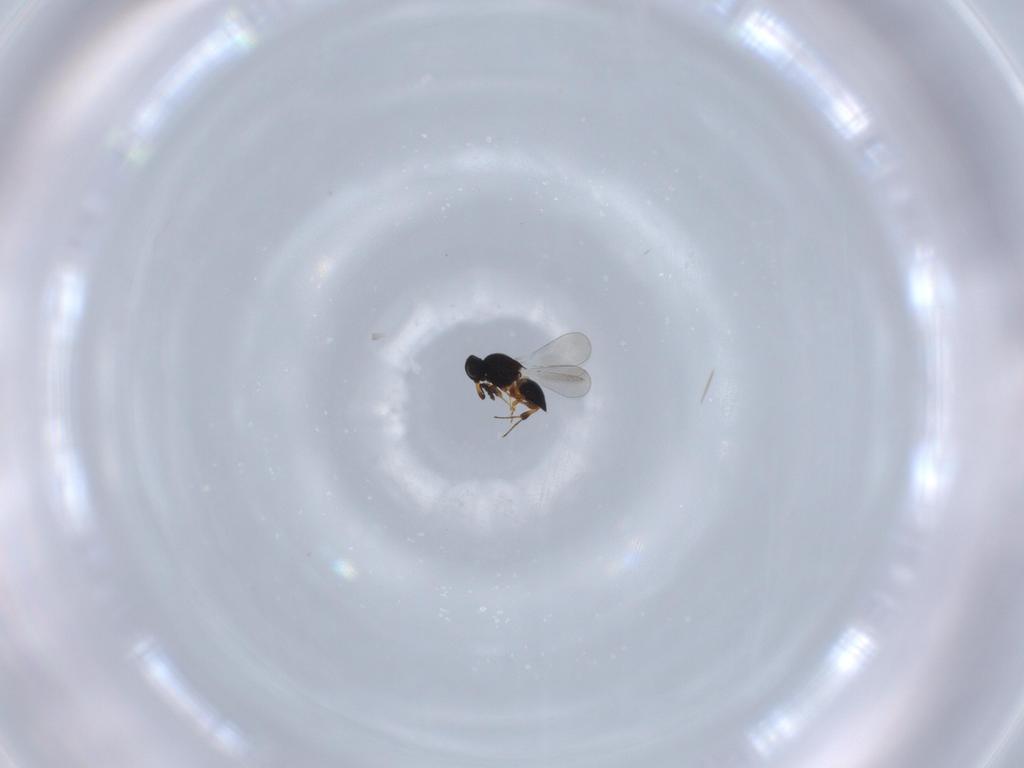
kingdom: Animalia
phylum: Arthropoda
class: Insecta
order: Hymenoptera
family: Platygastridae
